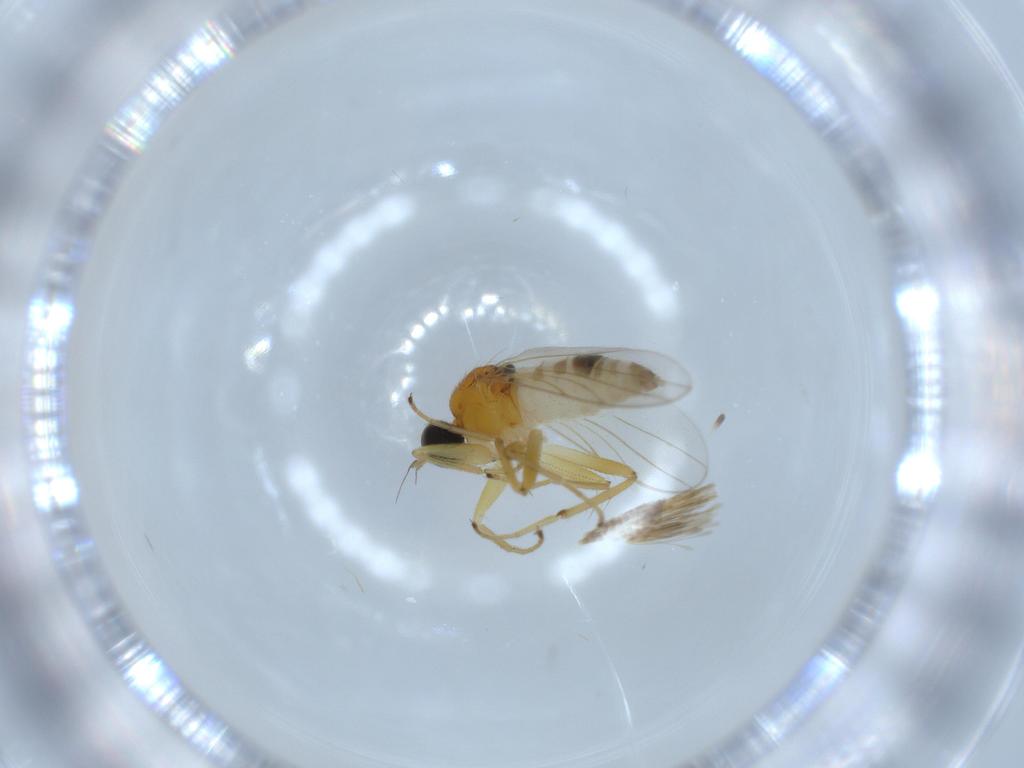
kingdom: Animalia
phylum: Arthropoda
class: Insecta
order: Diptera
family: Hybotidae
